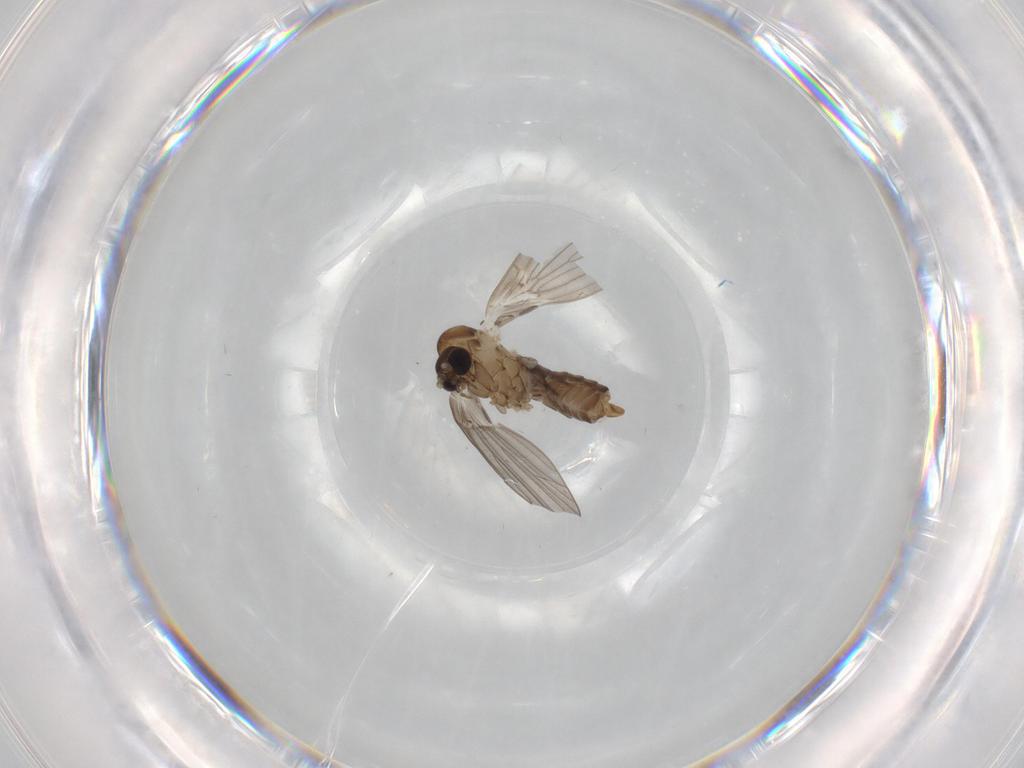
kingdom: Animalia
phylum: Arthropoda
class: Insecta
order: Diptera
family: Psychodidae
